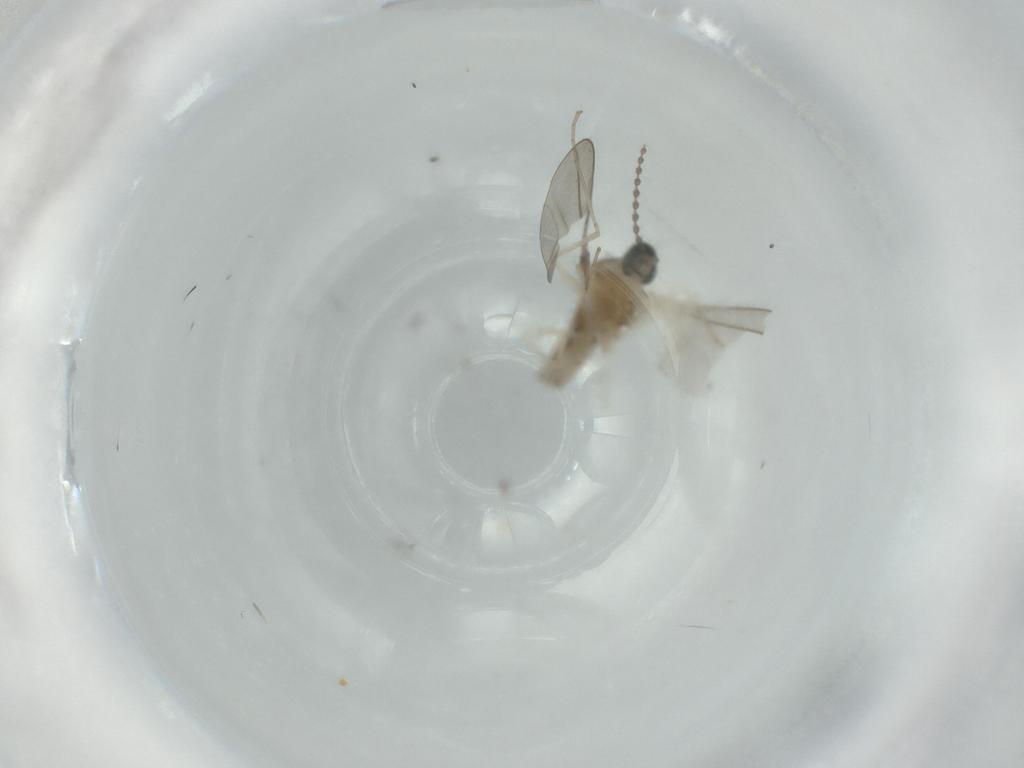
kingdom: Animalia
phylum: Arthropoda
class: Insecta
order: Diptera
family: Cecidomyiidae
